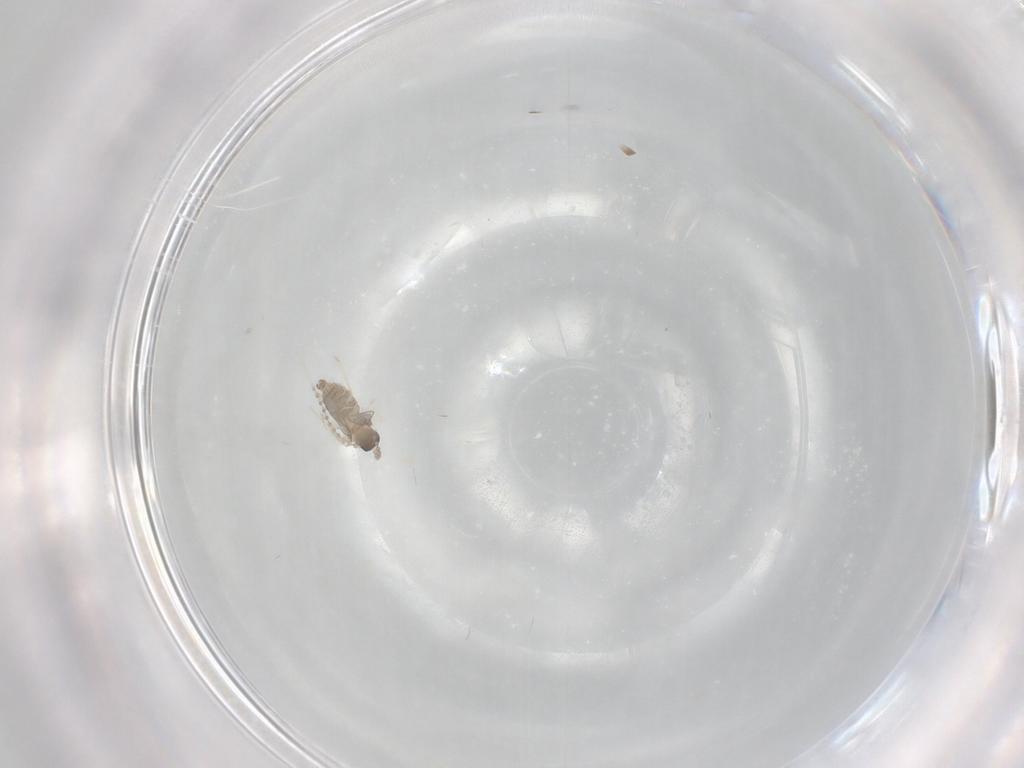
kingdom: Animalia
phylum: Arthropoda
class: Insecta
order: Diptera
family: Cecidomyiidae
